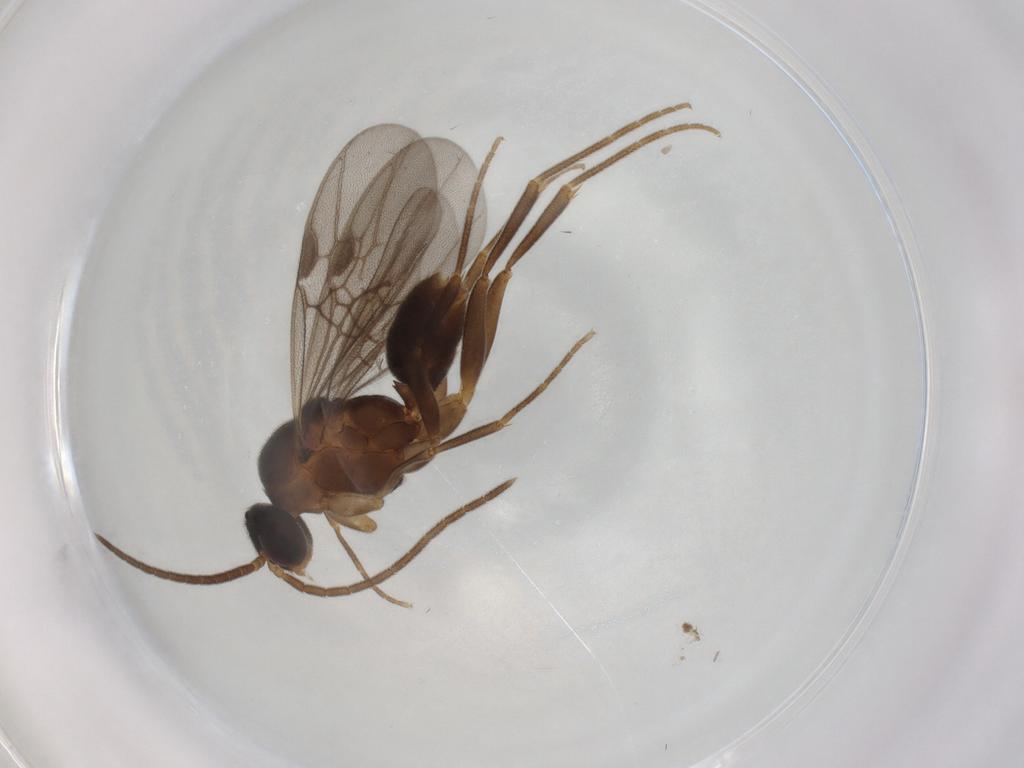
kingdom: Animalia
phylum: Arthropoda
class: Insecta
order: Hymenoptera
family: Formicidae
